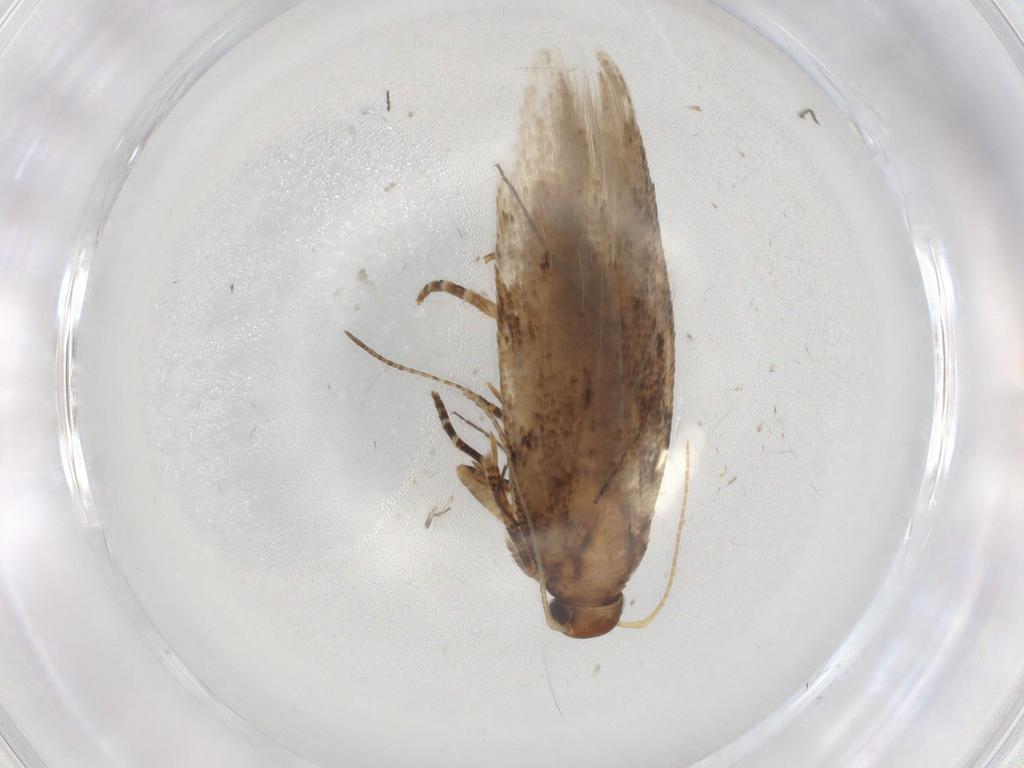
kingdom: Animalia
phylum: Arthropoda
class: Insecta
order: Lepidoptera
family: Gelechiidae
